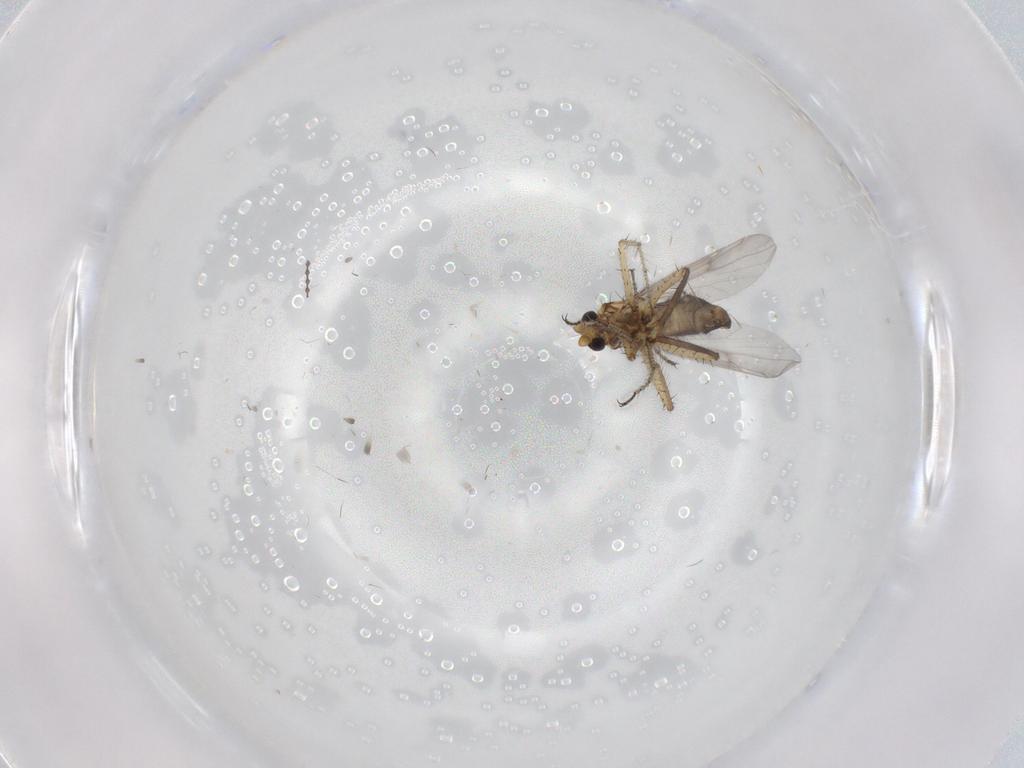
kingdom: Animalia
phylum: Arthropoda
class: Insecta
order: Diptera
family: Ceratopogonidae
